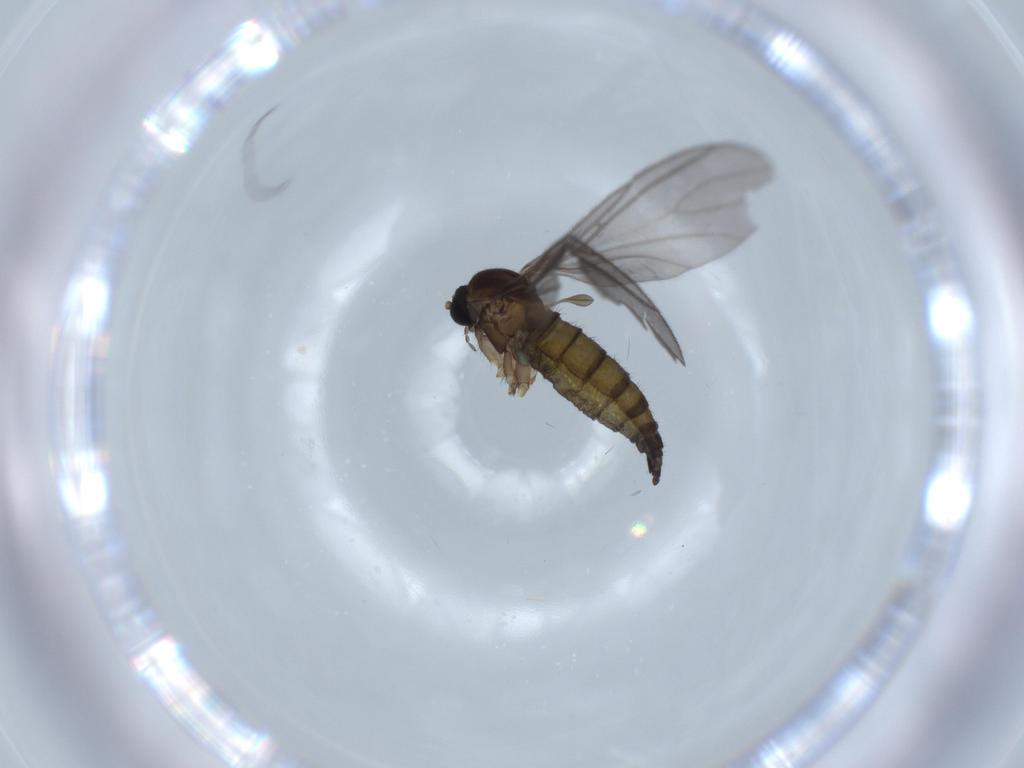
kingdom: Animalia
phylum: Arthropoda
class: Insecta
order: Diptera
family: Sciaridae
